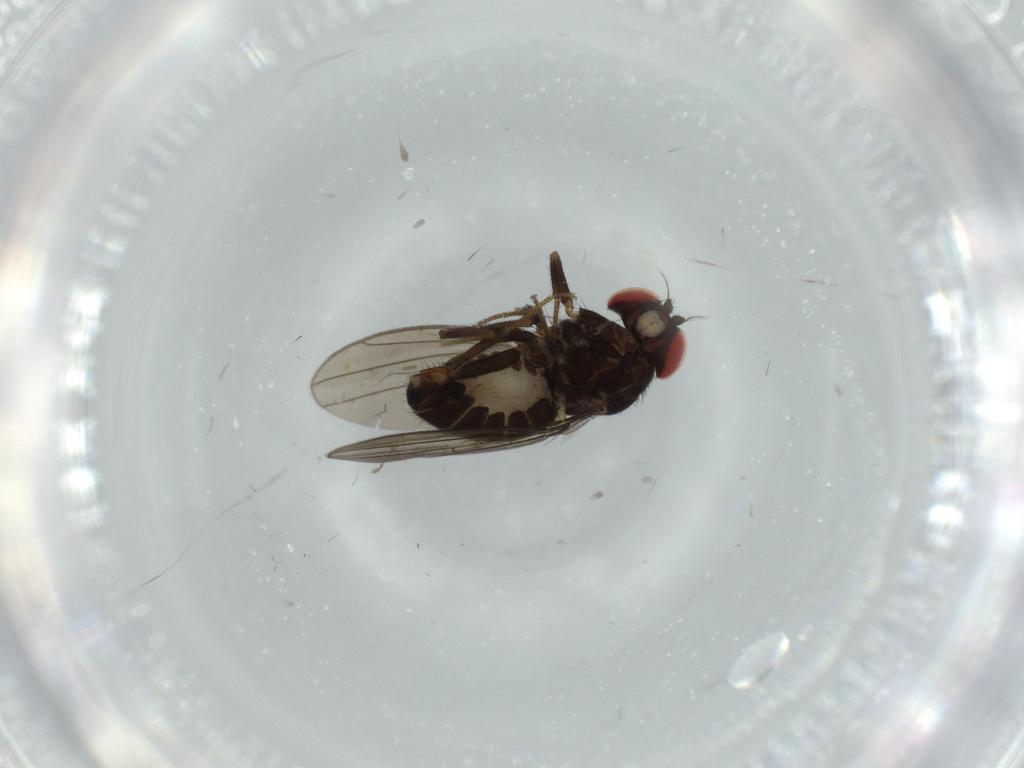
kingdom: Animalia
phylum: Arthropoda
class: Insecta
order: Diptera
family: Drosophilidae
